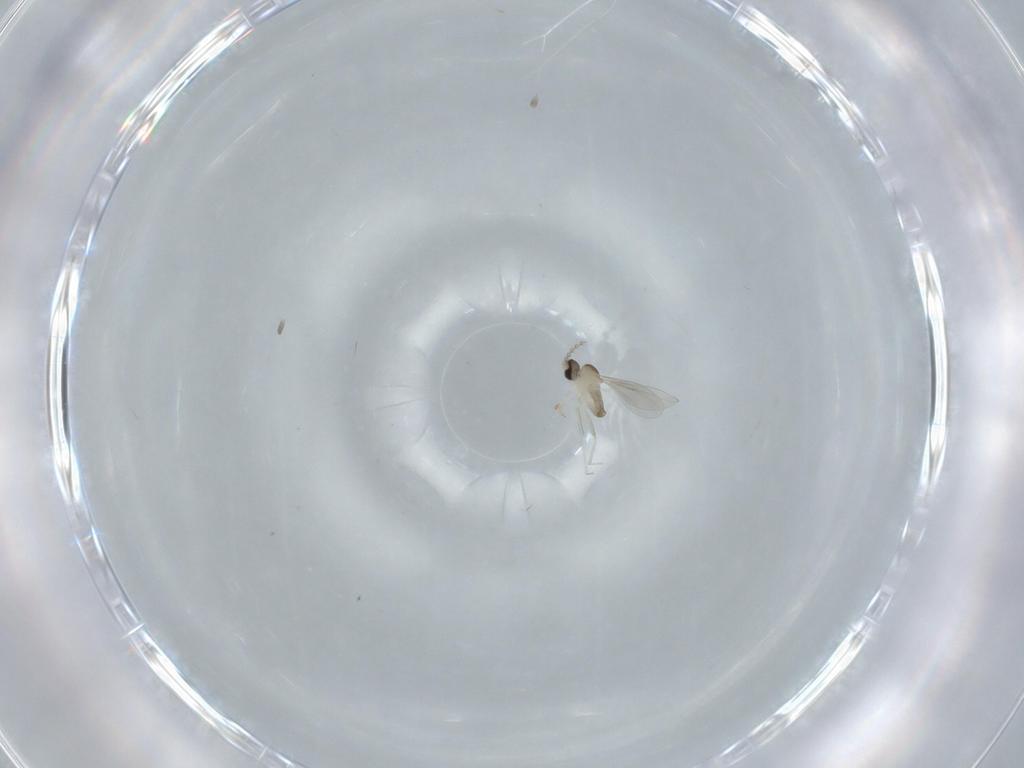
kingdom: Animalia
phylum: Arthropoda
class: Insecta
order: Diptera
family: Cecidomyiidae
